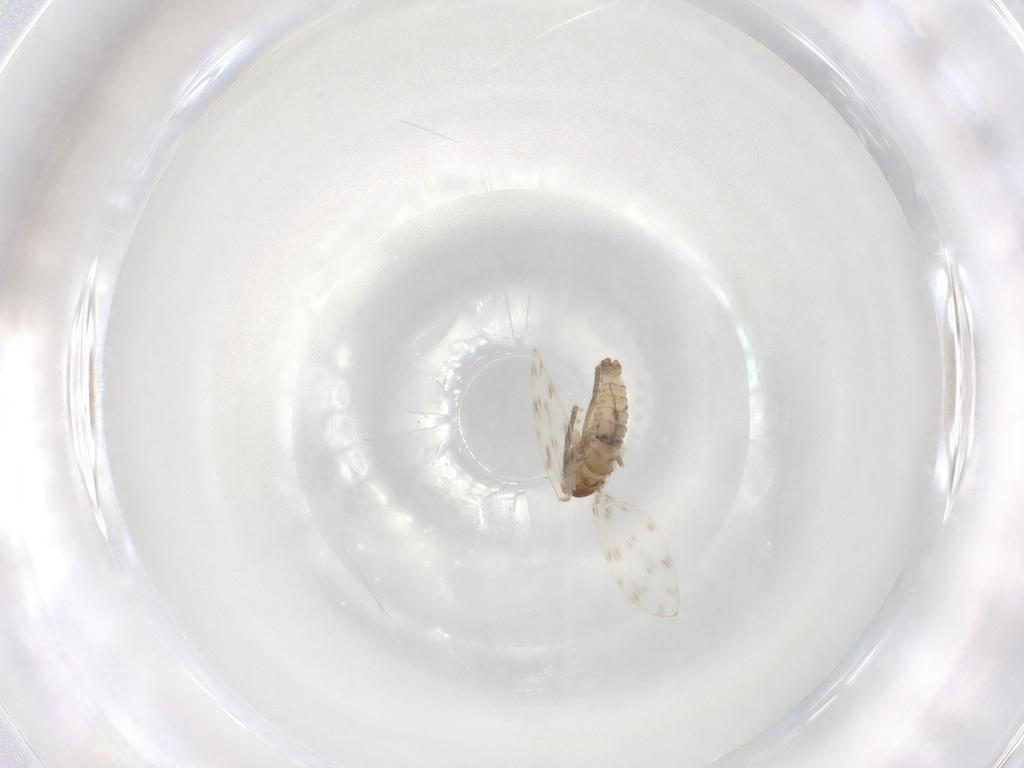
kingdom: Animalia
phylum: Arthropoda
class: Insecta
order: Diptera
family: Psychodidae
